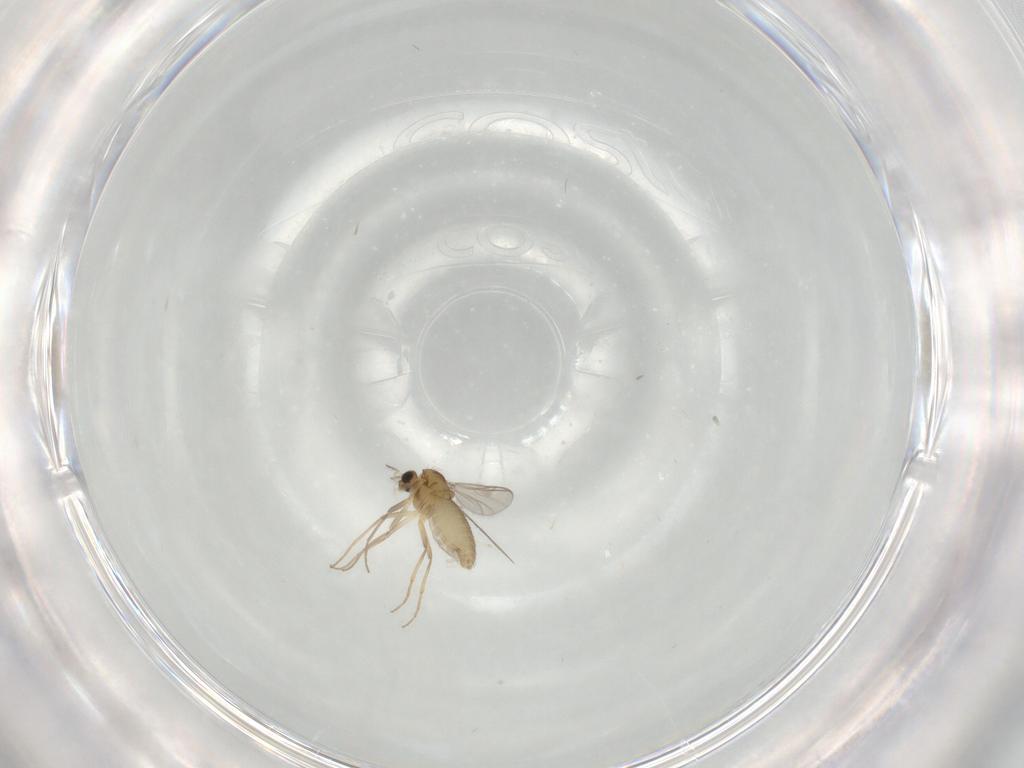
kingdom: Animalia
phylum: Arthropoda
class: Insecta
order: Diptera
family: Chironomidae
